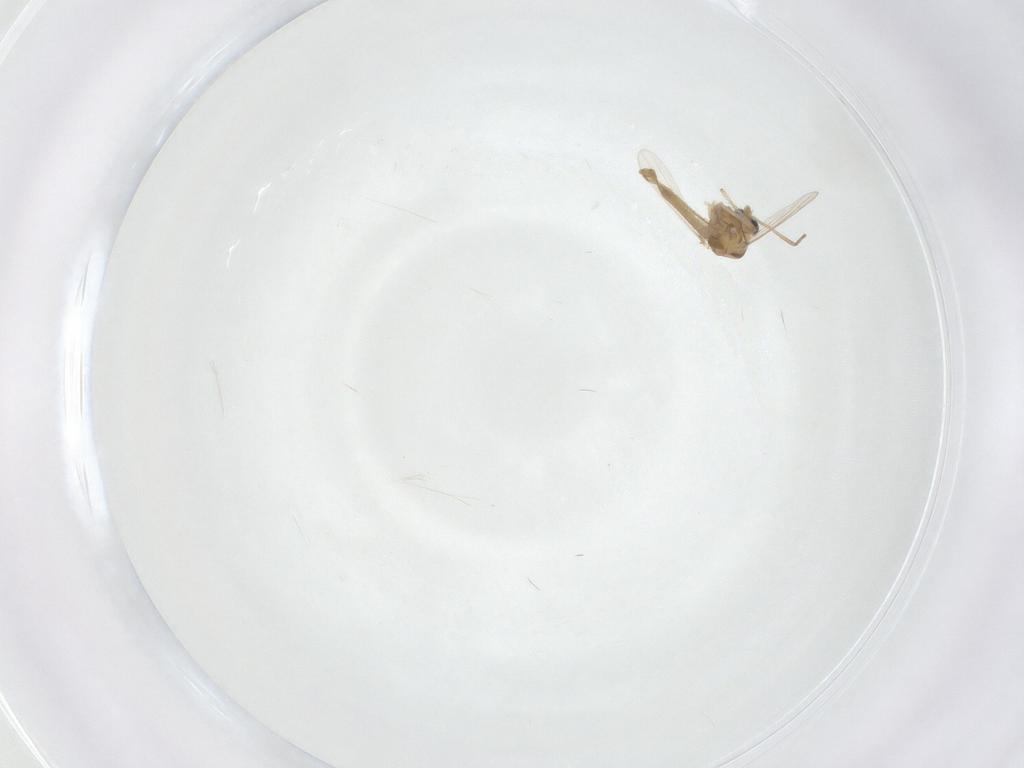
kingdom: Animalia
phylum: Arthropoda
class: Insecta
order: Diptera
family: Chironomidae
